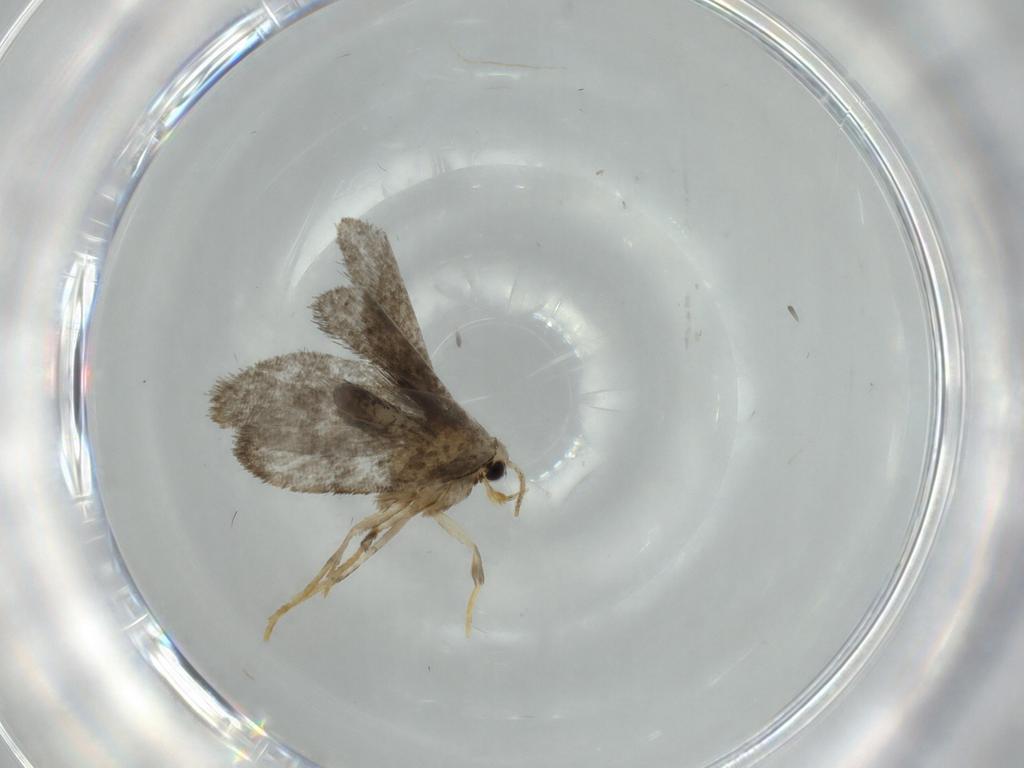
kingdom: Animalia
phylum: Arthropoda
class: Insecta
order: Lepidoptera
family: Psychidae
